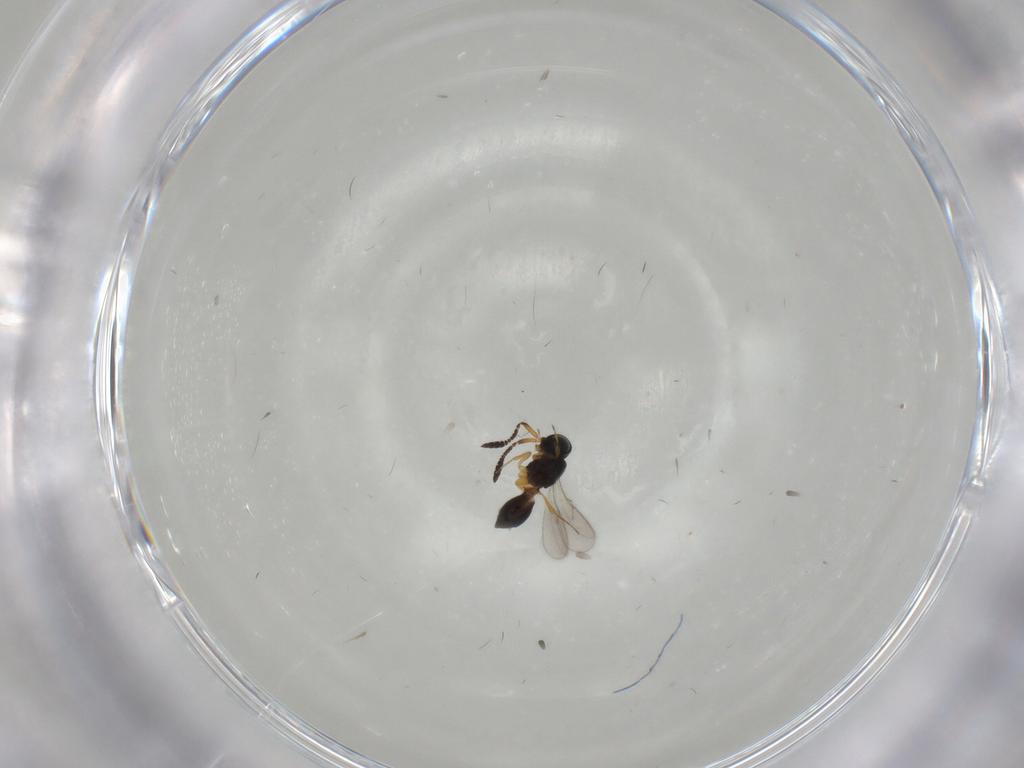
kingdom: Animalia
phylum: Arthropoda
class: Insecta
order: Hymenoptera
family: Scelionidae
